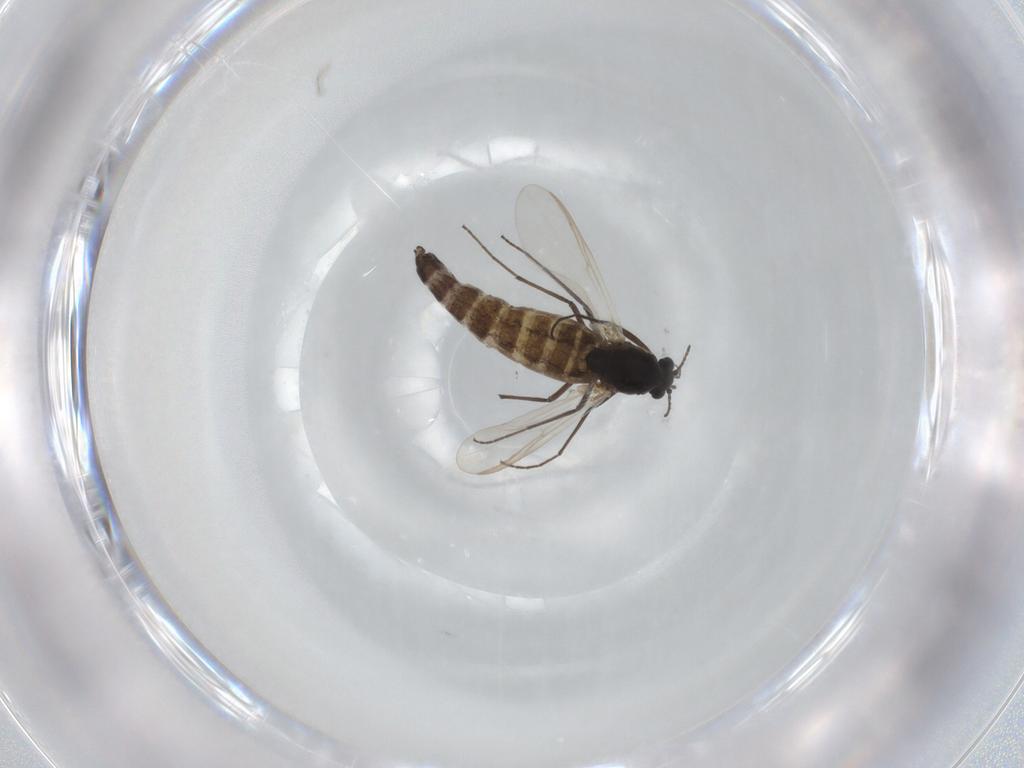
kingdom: Animalia
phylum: Arthropoda
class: Insecta
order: Diptera
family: Chironomidae
